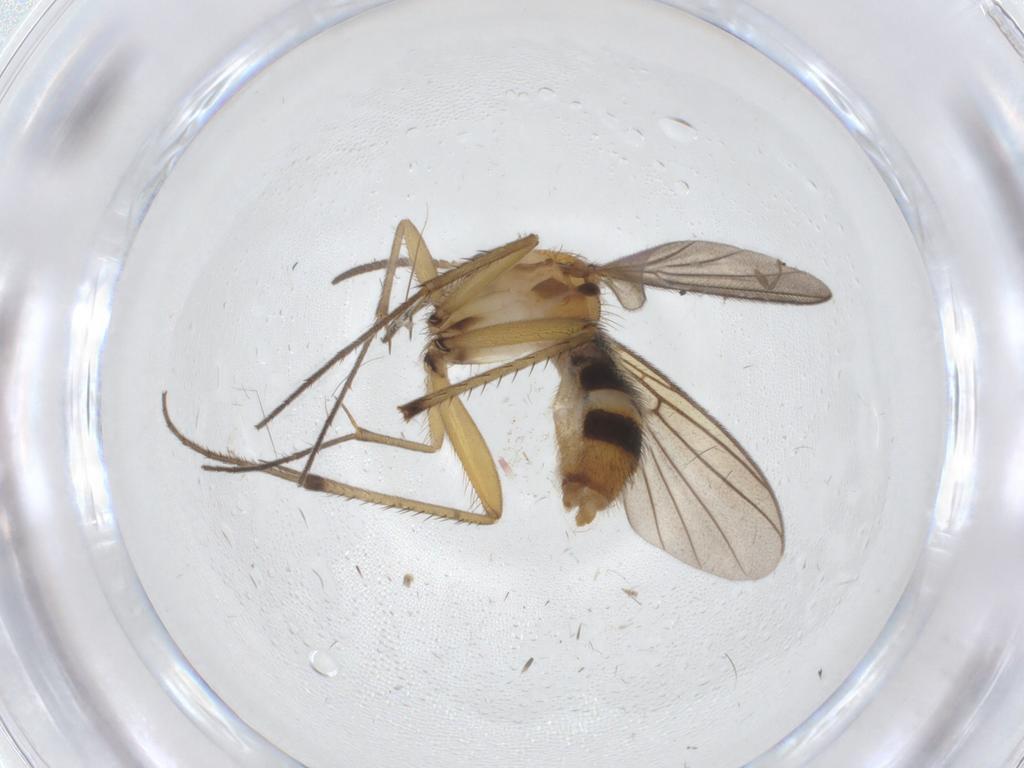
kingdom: Animalia
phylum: Arthropoda
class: Insecta
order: Diptera
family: Mycetophilidae
